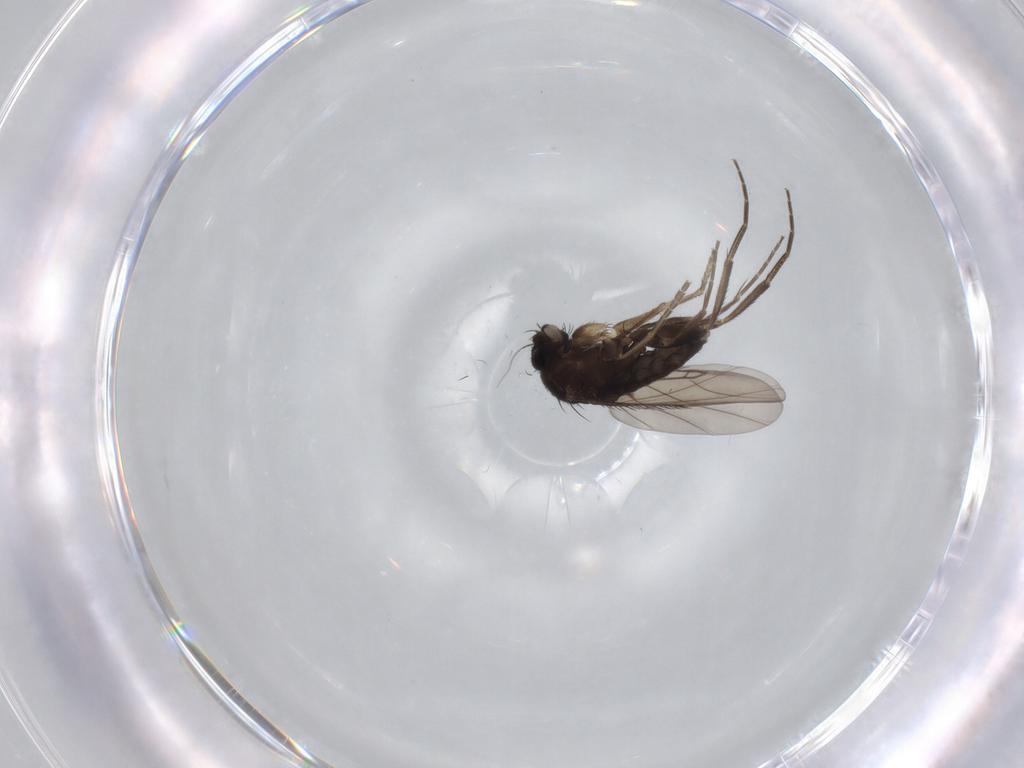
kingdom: Animalia
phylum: Arthropoda
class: Insecta
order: Diptera
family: Phoridae
